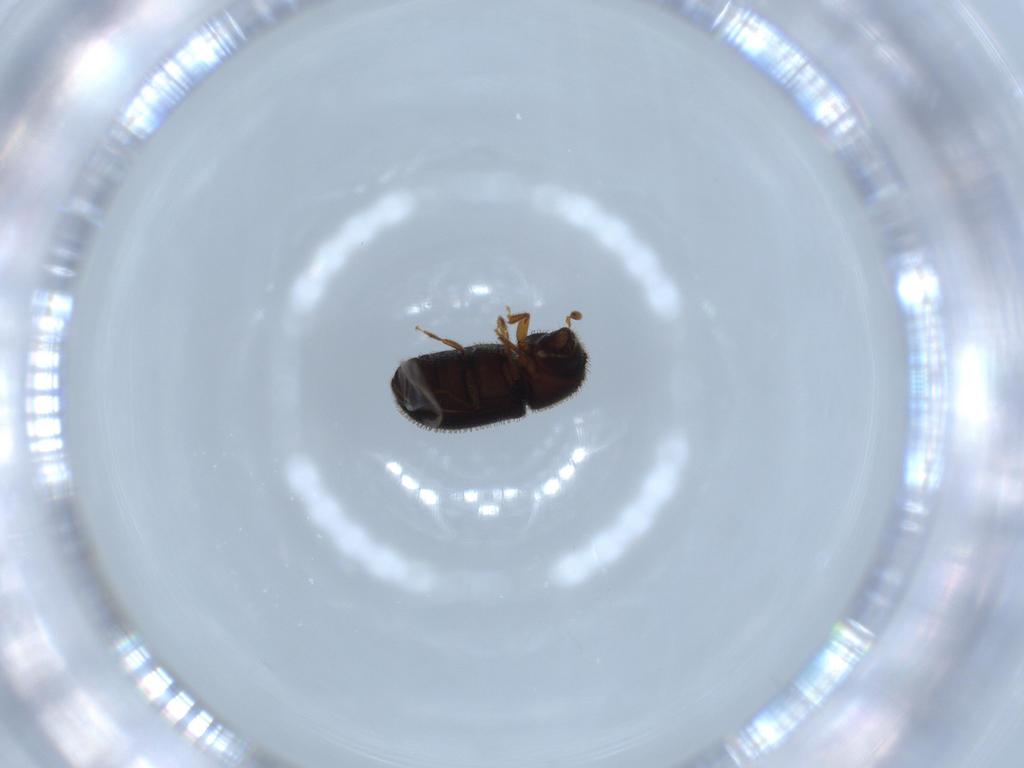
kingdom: Animalia
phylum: Arthropoda
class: Insecta
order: Coleoptera
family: Curculionidae
